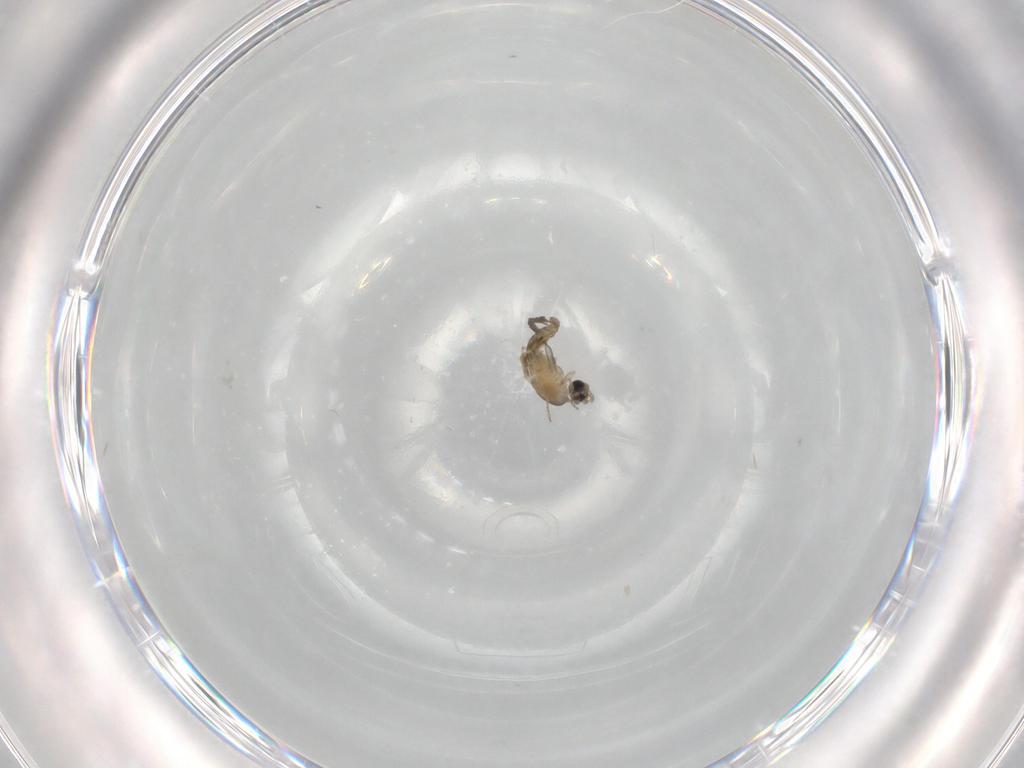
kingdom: Animalia
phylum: Arthropoda
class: Insecta
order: Diptera
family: Cecidomyiidae
